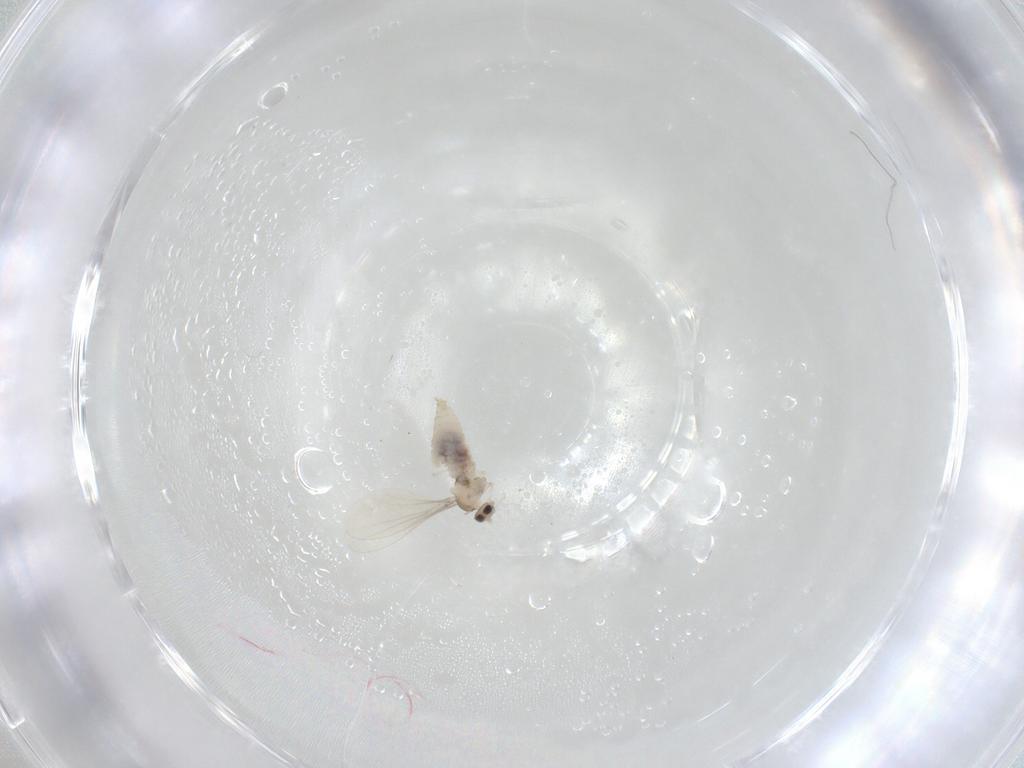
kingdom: Animalia
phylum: Arthropoda
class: Insecta
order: Diptera
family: Cecidomyiidae
